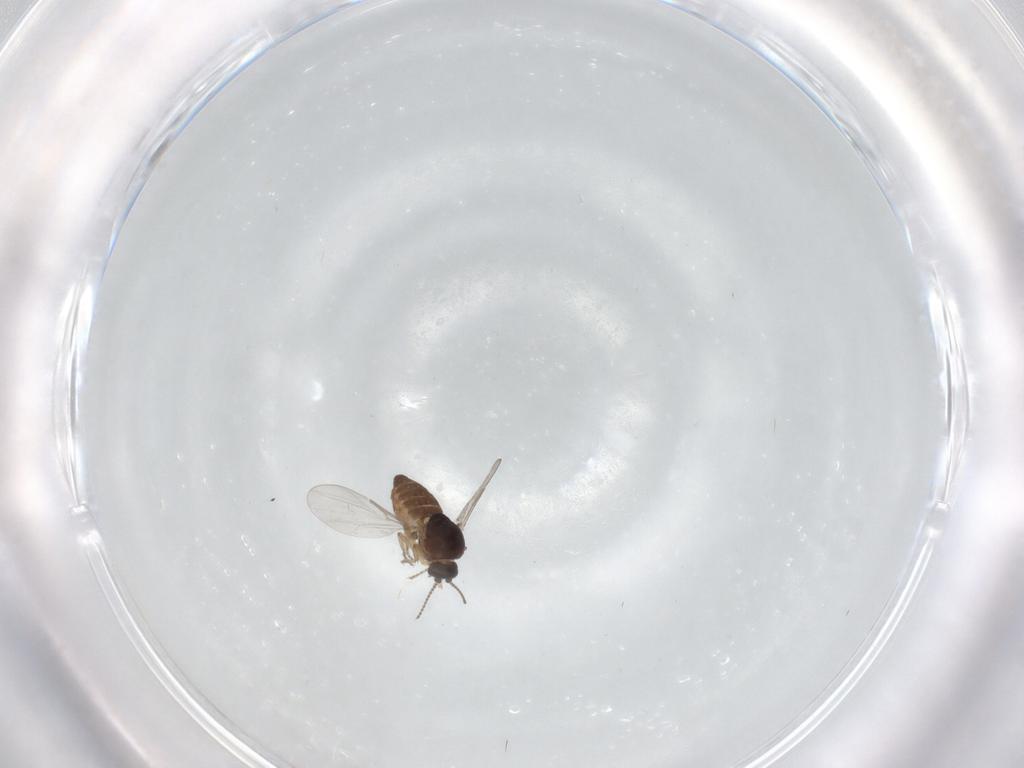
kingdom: Animalia
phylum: Arthropoda
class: Insecta
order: Diptera
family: Ceratopogonidae
